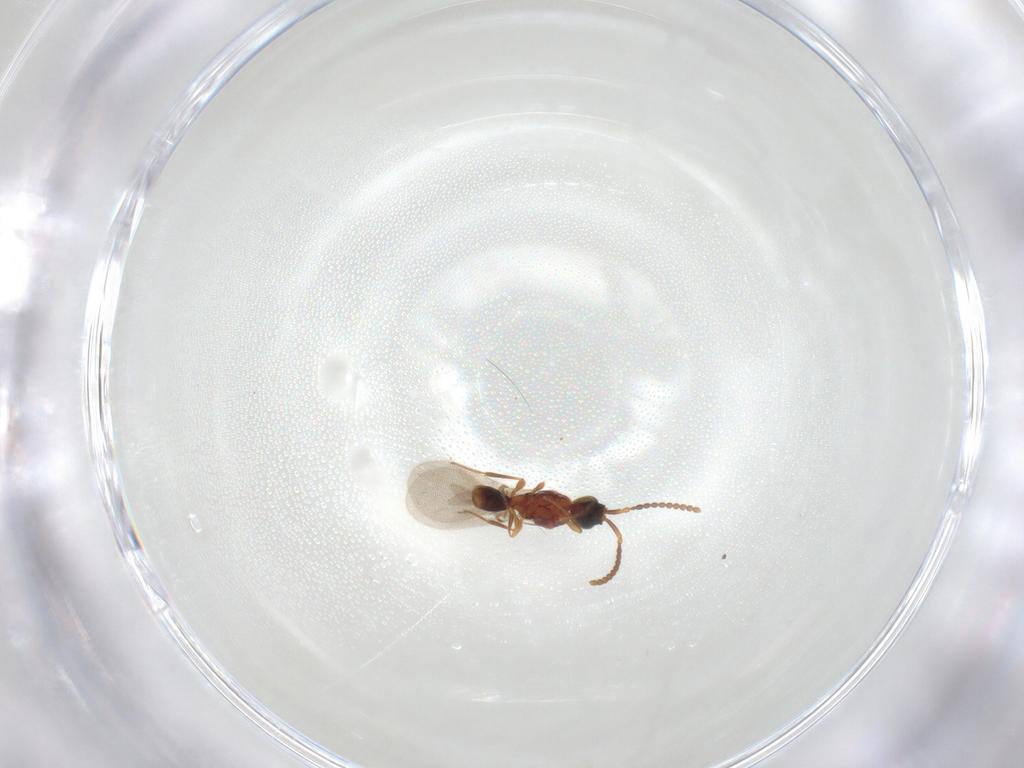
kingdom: Animalia
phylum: Arthropoda
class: Insecta
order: Hymenoptera
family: Diapriidae
